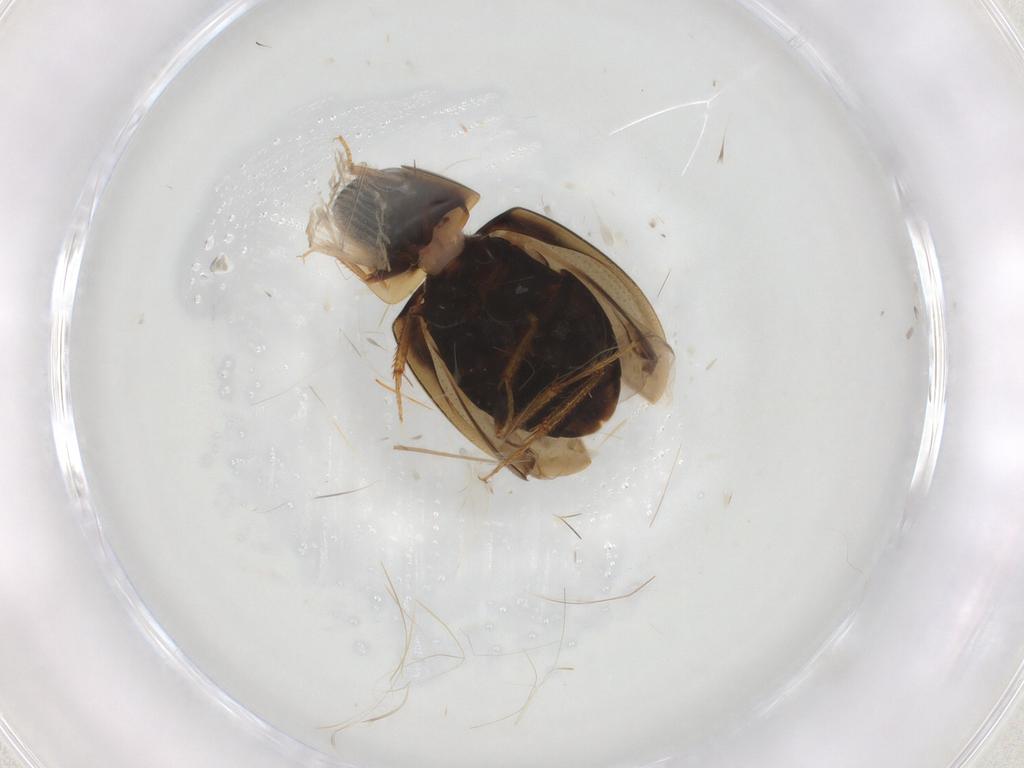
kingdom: Animalia
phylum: Arthropoda
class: Insecta
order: Coleoptera
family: Hydrophilidae
